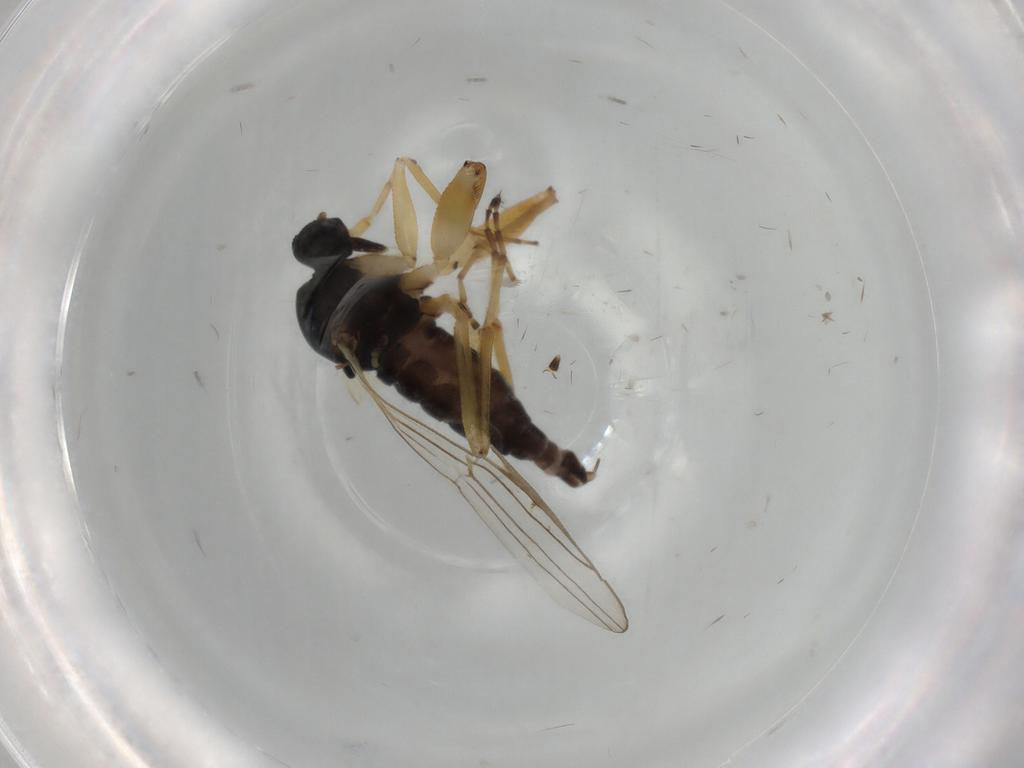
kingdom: Animalia
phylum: Arthropoda
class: Insecta
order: Diptera
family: Hybotidae
